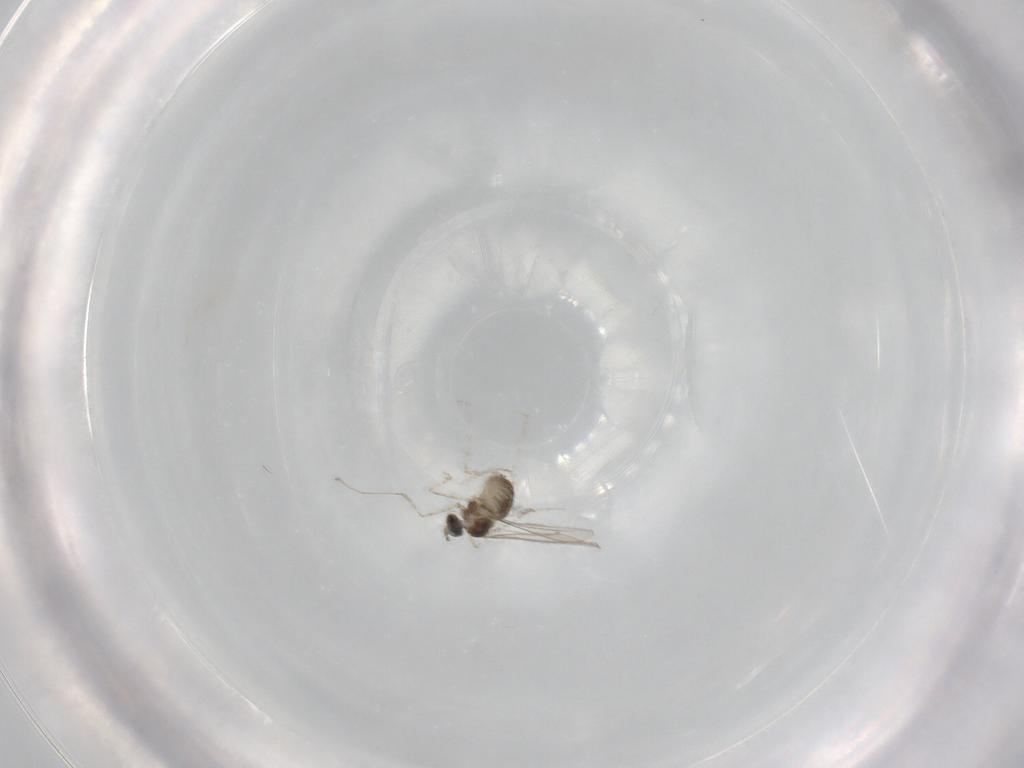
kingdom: Animalia
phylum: Arthropoda
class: Insecta
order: Diptera
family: Cecidomyiidae
